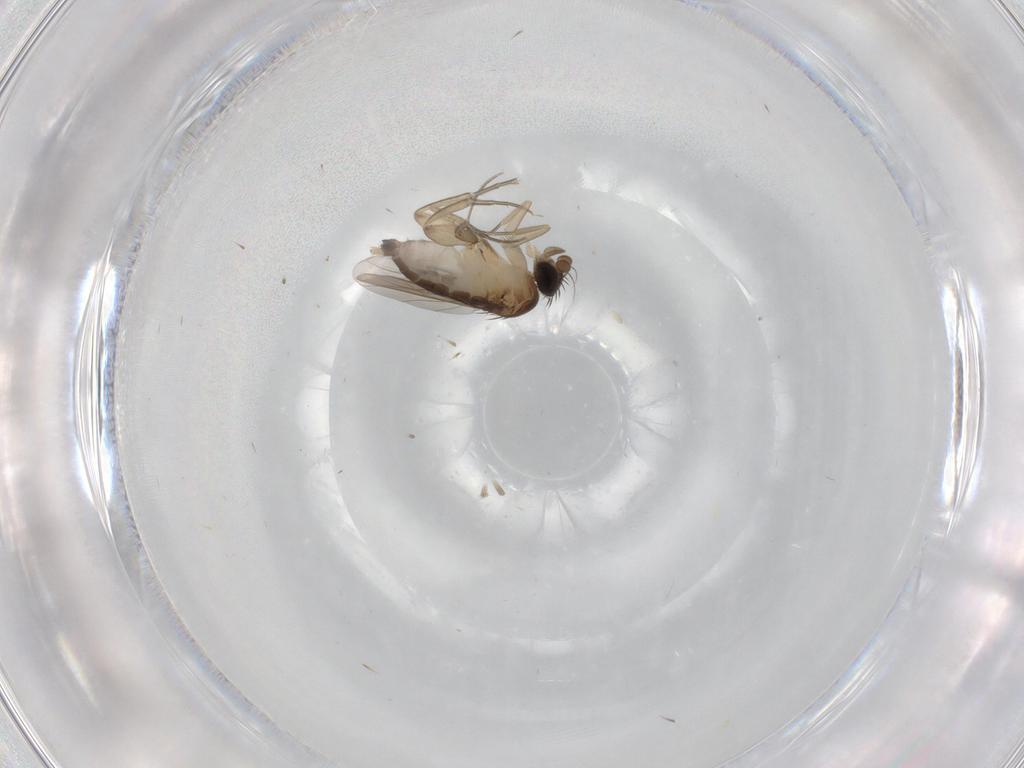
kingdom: Animalia
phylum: Arthropoda
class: Insecta
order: Diptera
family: Phoridae
